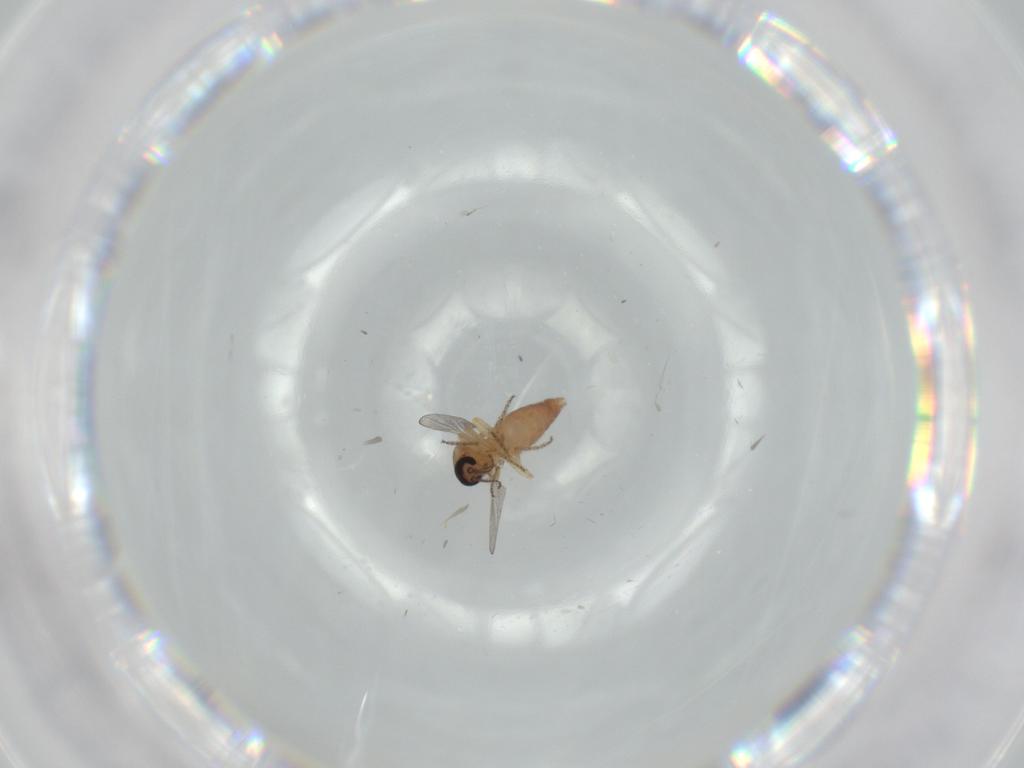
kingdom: Animalia
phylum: Arthropoda
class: Insecta
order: Diptera
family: Ceratopogonidae
